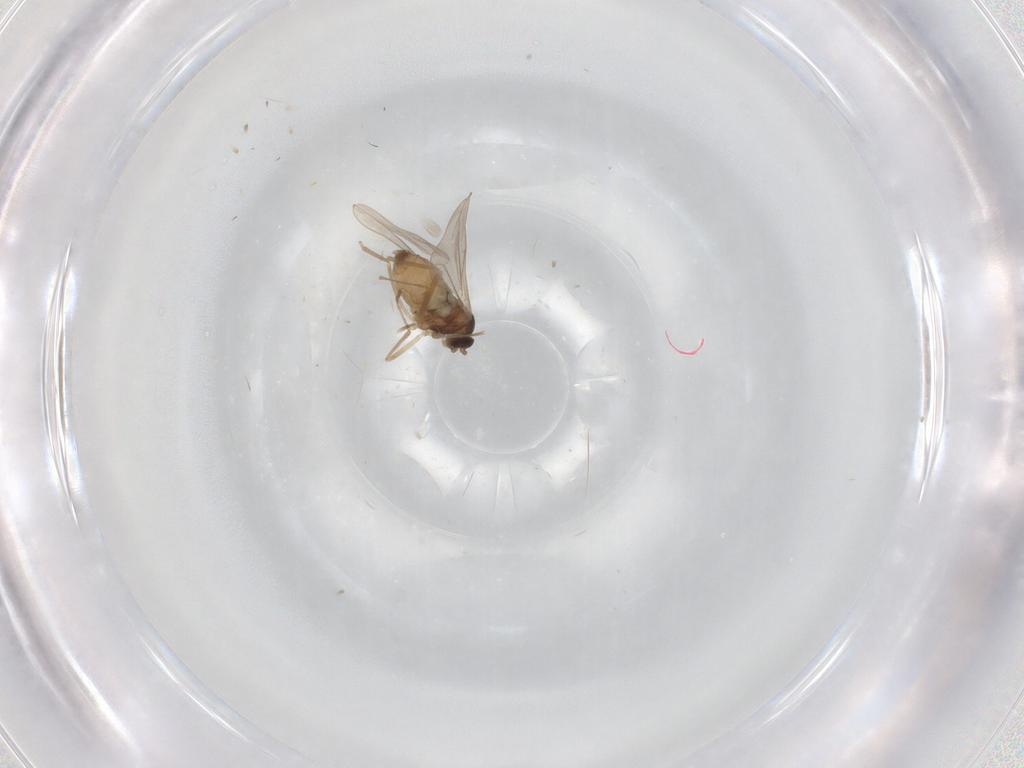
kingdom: Animalia
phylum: Arthropoda
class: Insecta
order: Diptera
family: Cecidomyiidae
